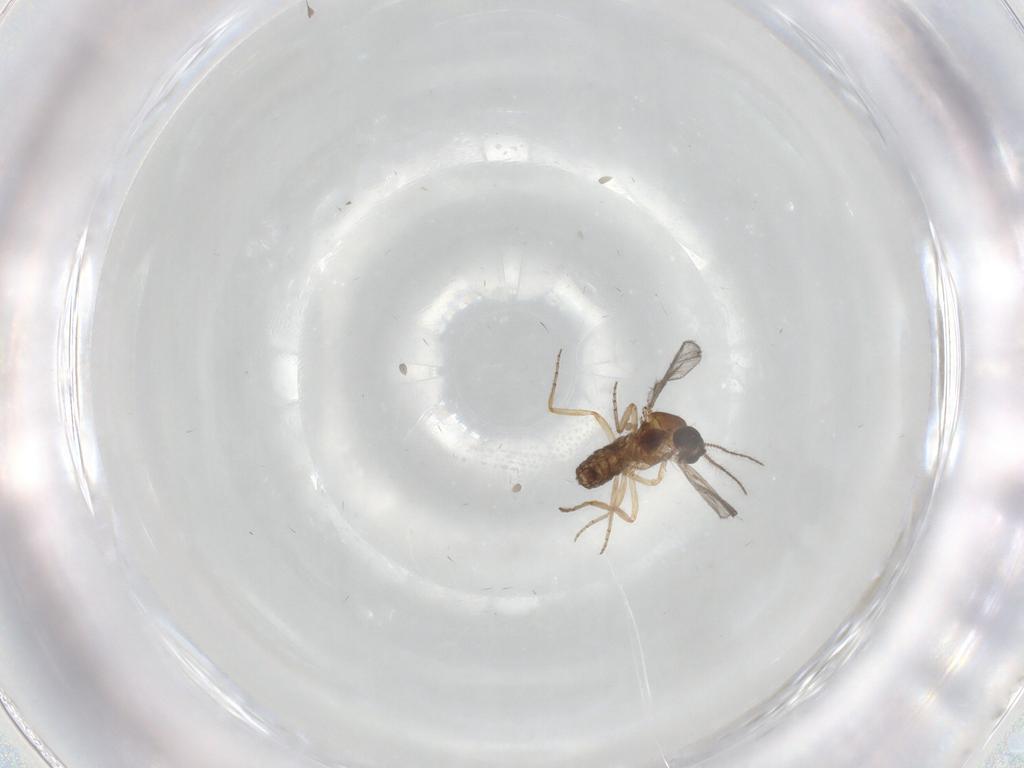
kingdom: Animalia
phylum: Arthropoda
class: Insecta
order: Diptera
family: Ceratopogonidae
